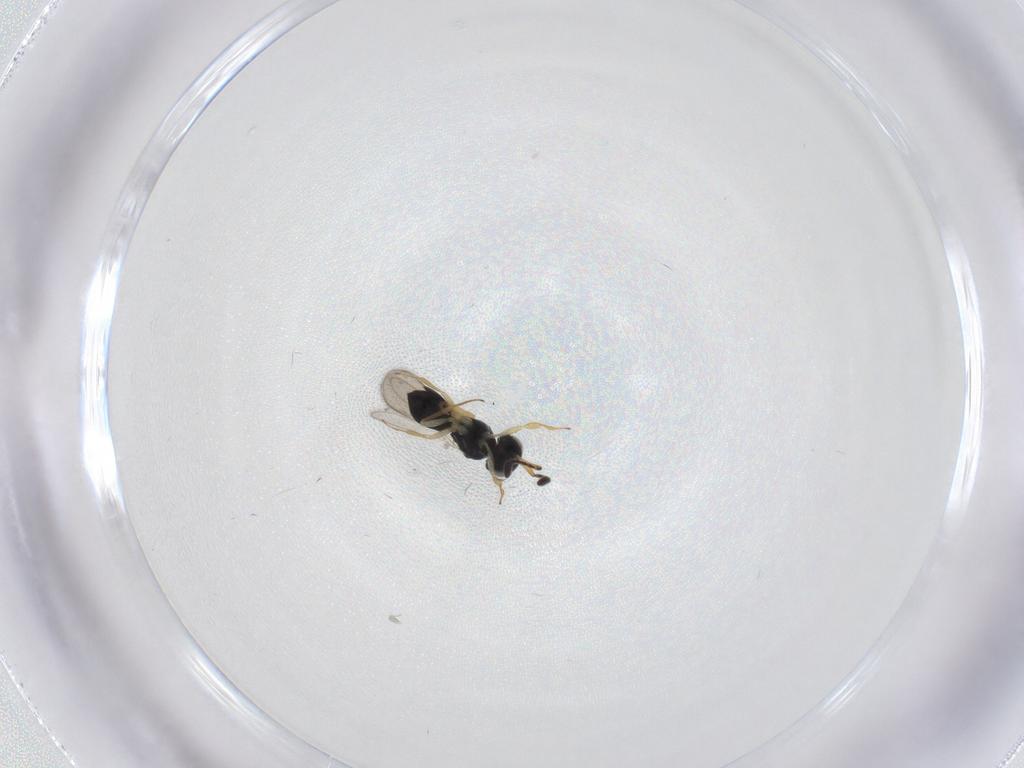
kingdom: Animalia
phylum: Arthropoda
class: Insecta
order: Hymenoptera
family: Scelionidae
